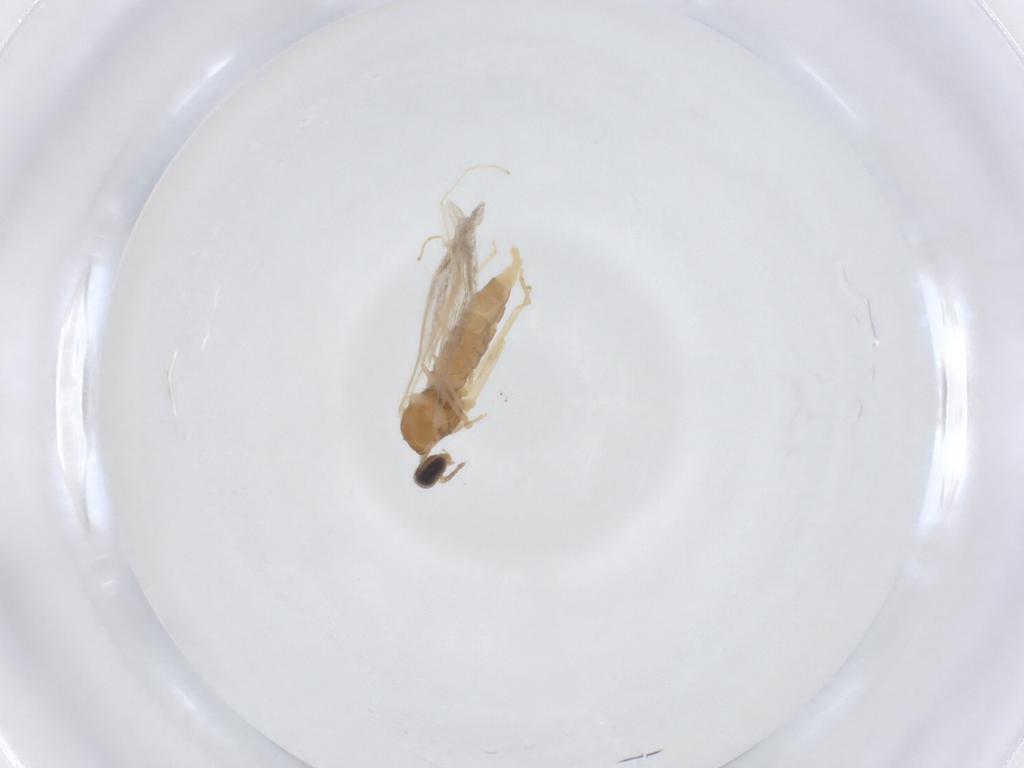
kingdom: Animalia
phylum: Arthropoda
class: Insecta
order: Diptera
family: Cecidomyiidae
